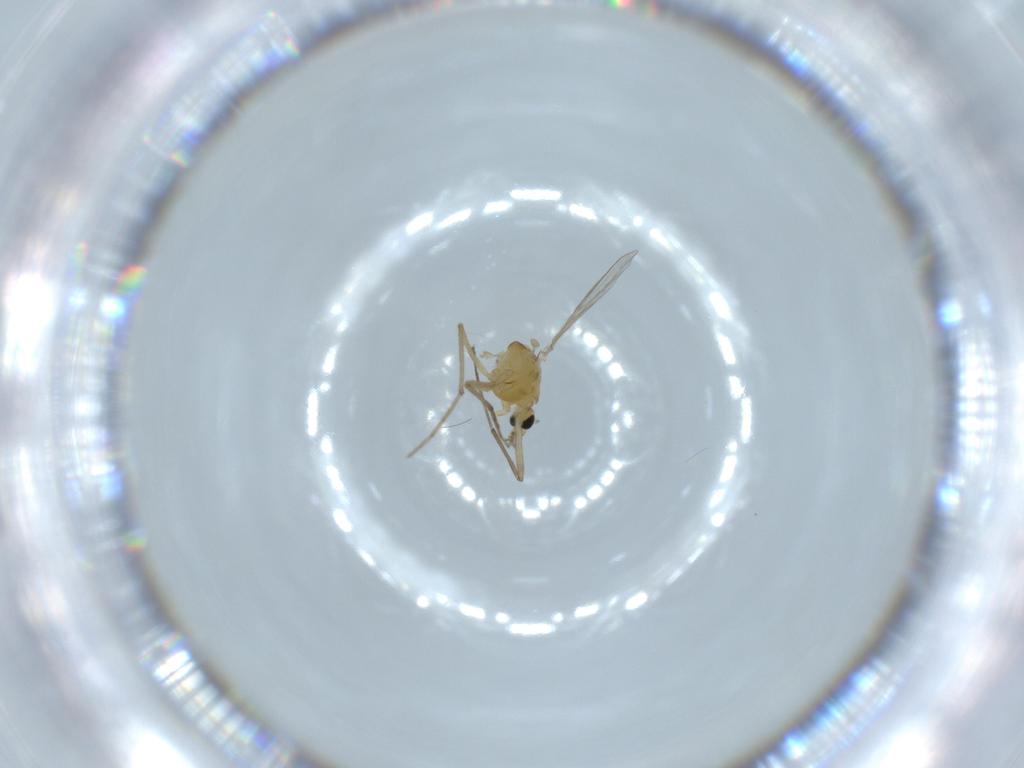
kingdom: Animalia
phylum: Arthropoda
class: Insecta
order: Diptera
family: Chironomidae
